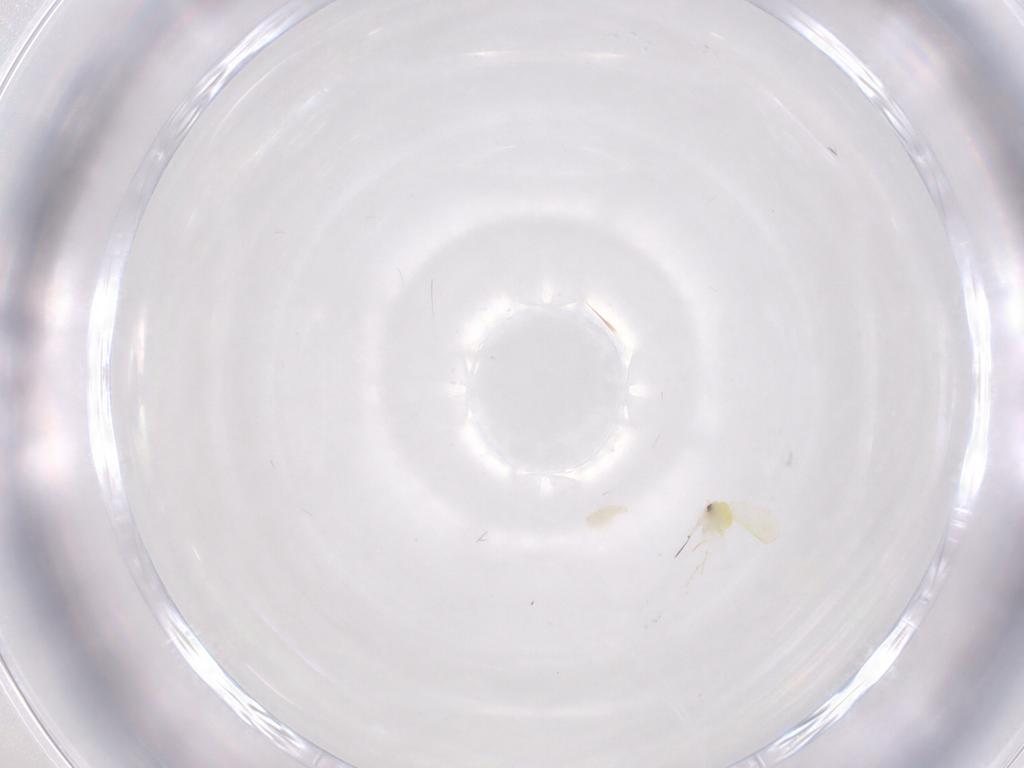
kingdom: Animalia
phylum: Arthropoda
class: Insecta
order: Hemiptera
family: Aleyrodidae
